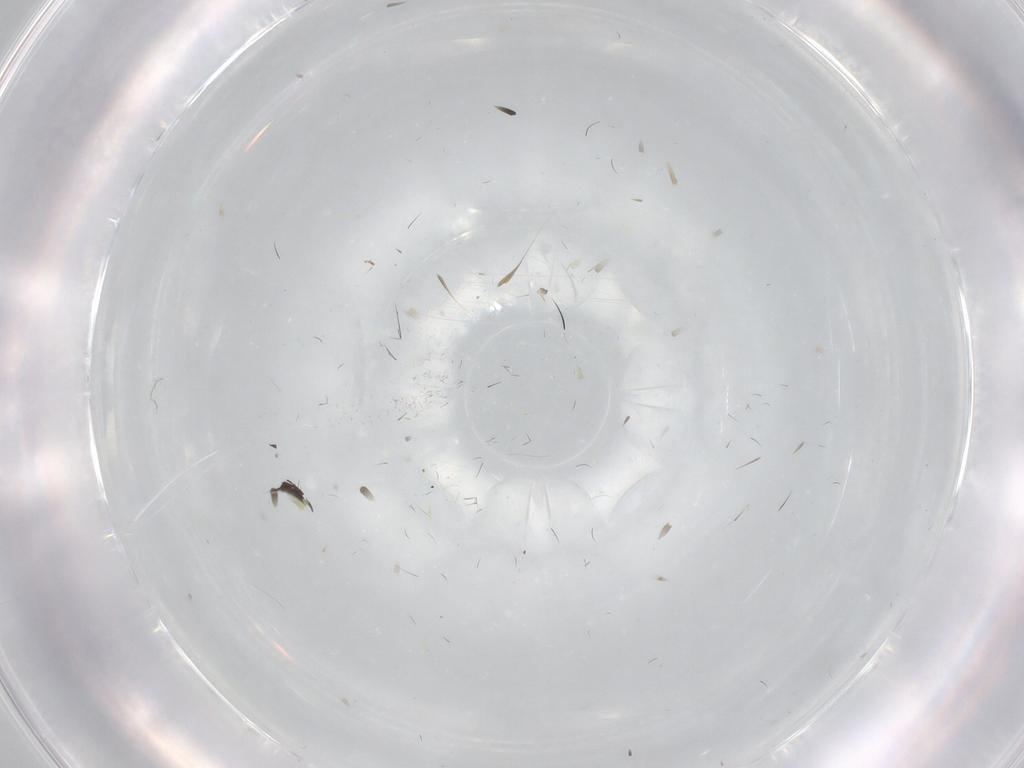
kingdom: Animalia
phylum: Arthropoda
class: Insecta
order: Diptera
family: Sciaridae
